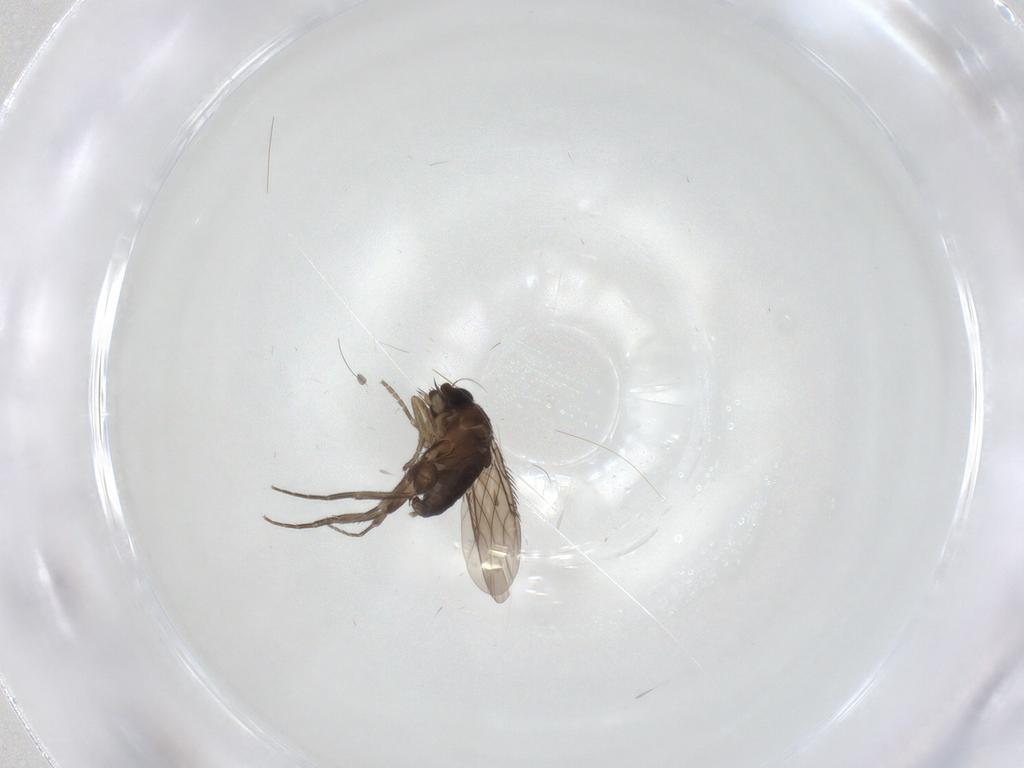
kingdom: Animalia
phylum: Arthropoda
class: Insecta
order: Diptera
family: Phoridae
